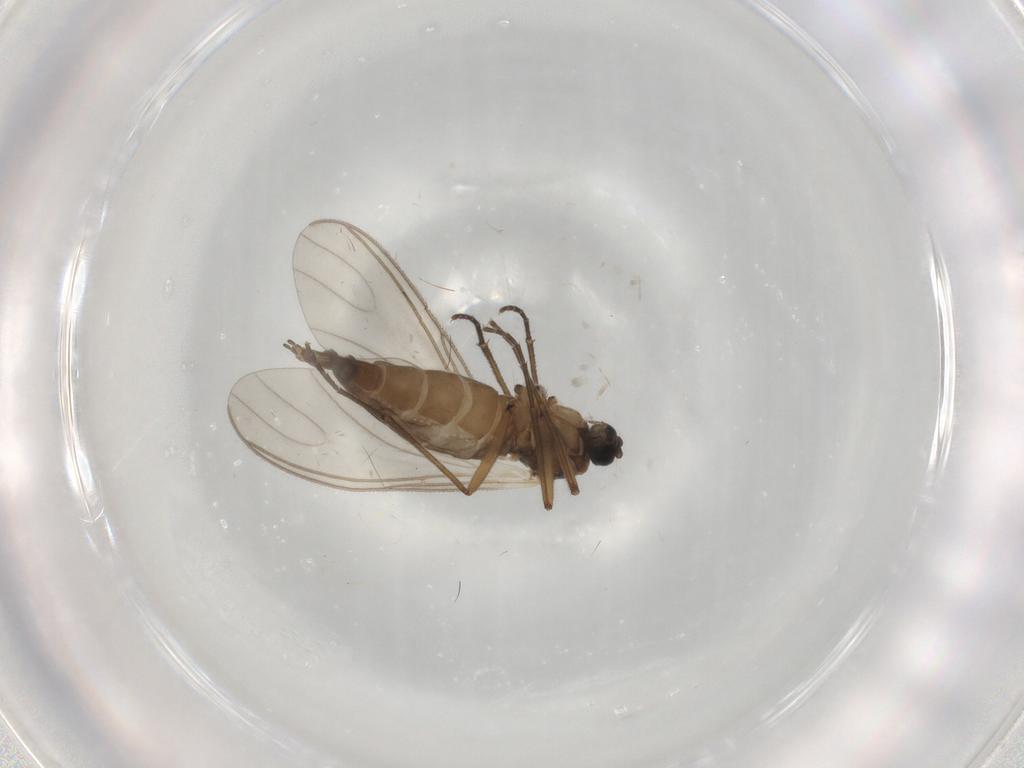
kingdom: Animalia
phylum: Arthropoda
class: Insecta
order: Diptera
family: Sciaridae
